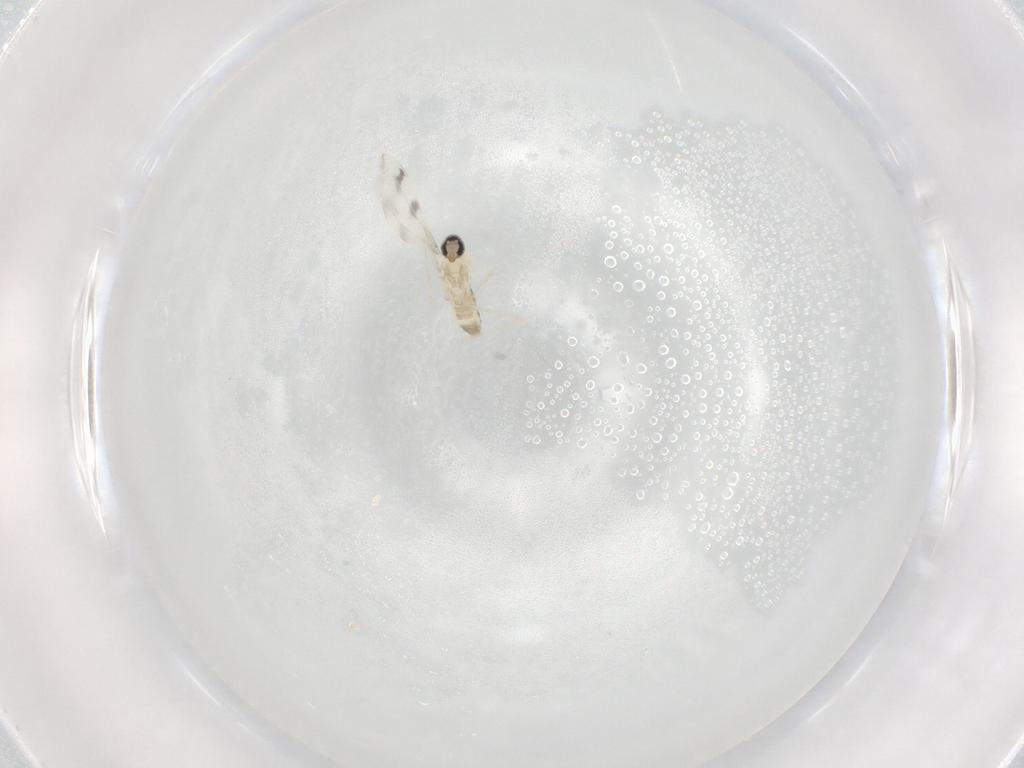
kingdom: Animalia
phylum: Arthropoda
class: Insecta
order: Diptera
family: Cecidomyiidae
